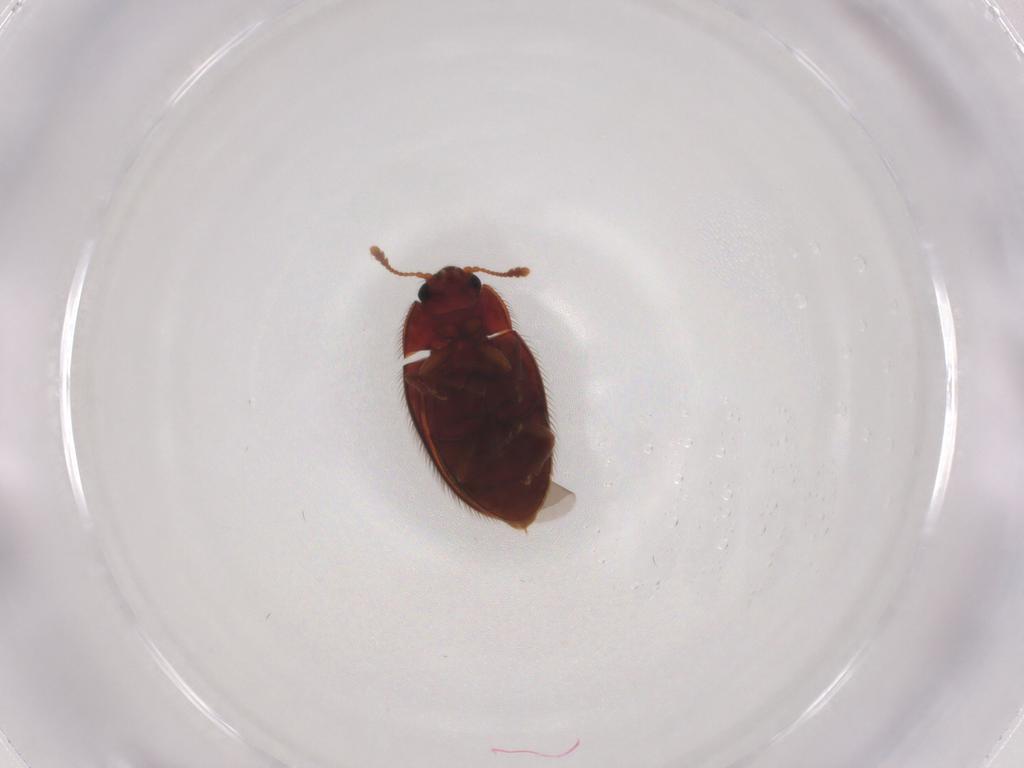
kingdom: Animalia
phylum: Arthropoda
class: Insecta
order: Coleoptera
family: Biphyllidae
